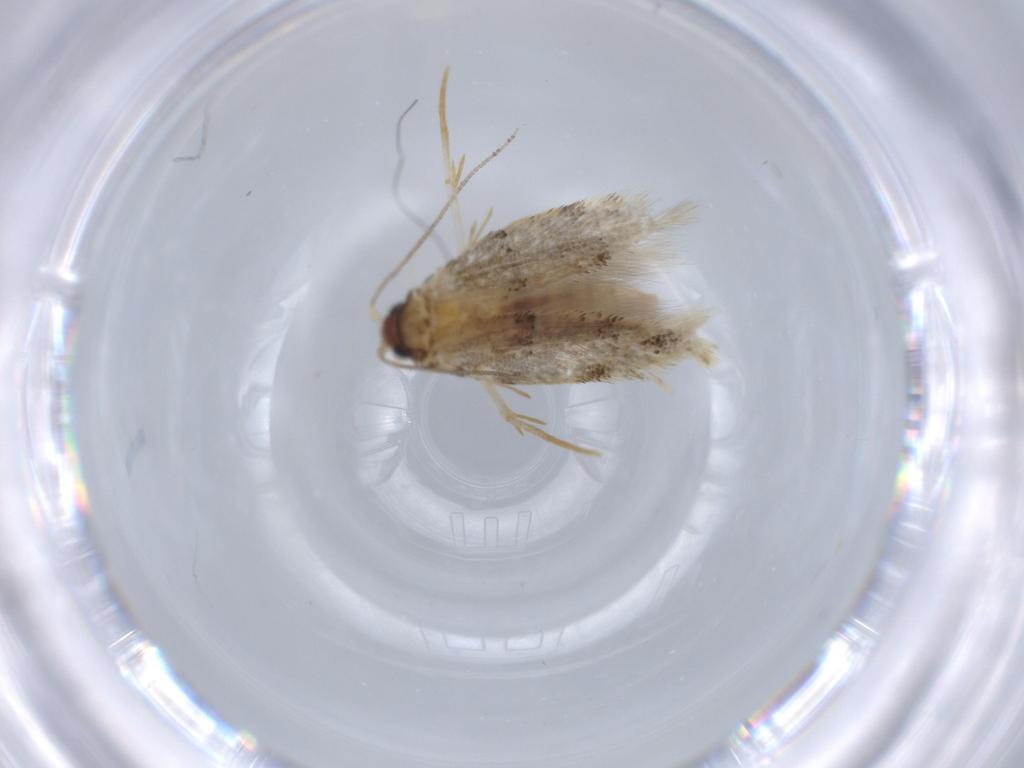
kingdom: Animalia
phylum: Arthropoda
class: Insecta
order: Lepidoptera
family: Tineidae
